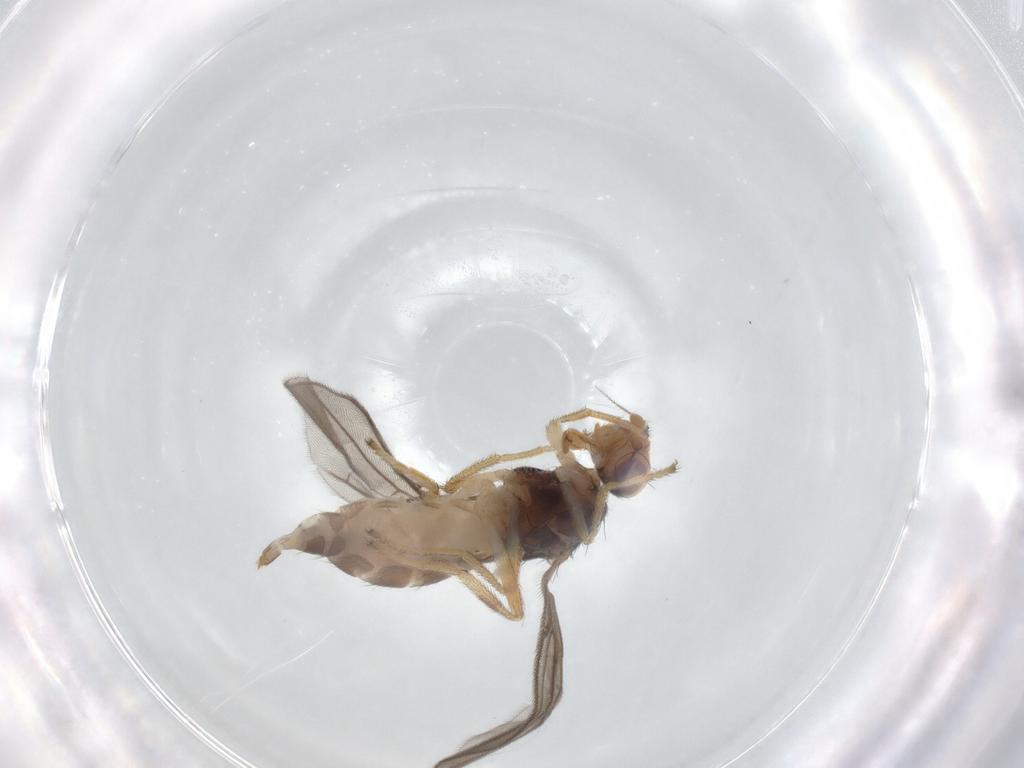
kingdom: Animalia
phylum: Arthropoda
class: Insecta
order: Diptera
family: Chloropidae
